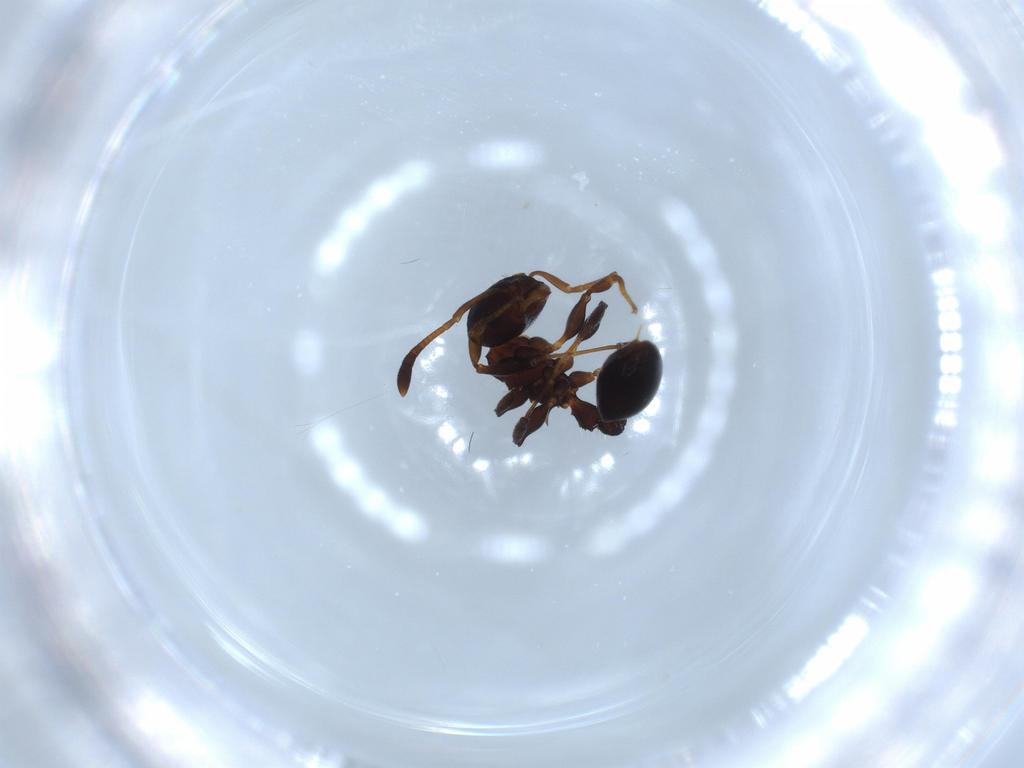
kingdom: Animalia
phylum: Arthropoda
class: Insecta
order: Hymenoptera
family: Formicidae
